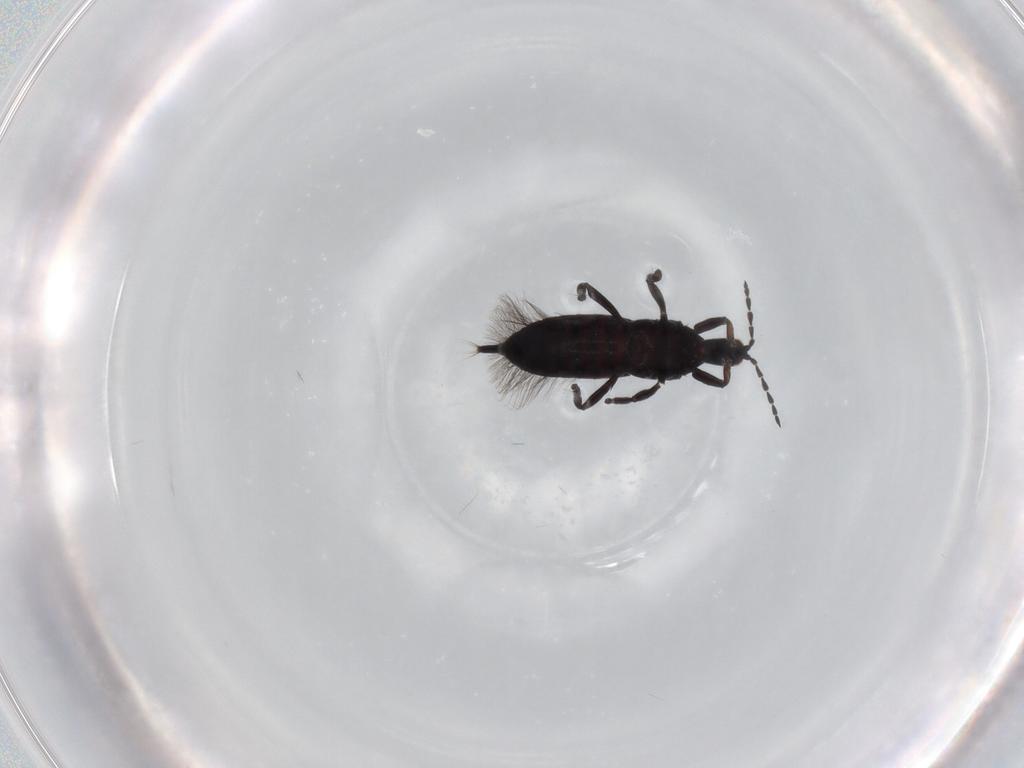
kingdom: Animalia
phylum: Arthropoda
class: Insecta
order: Thysanoptera
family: Phlaeothripidae
